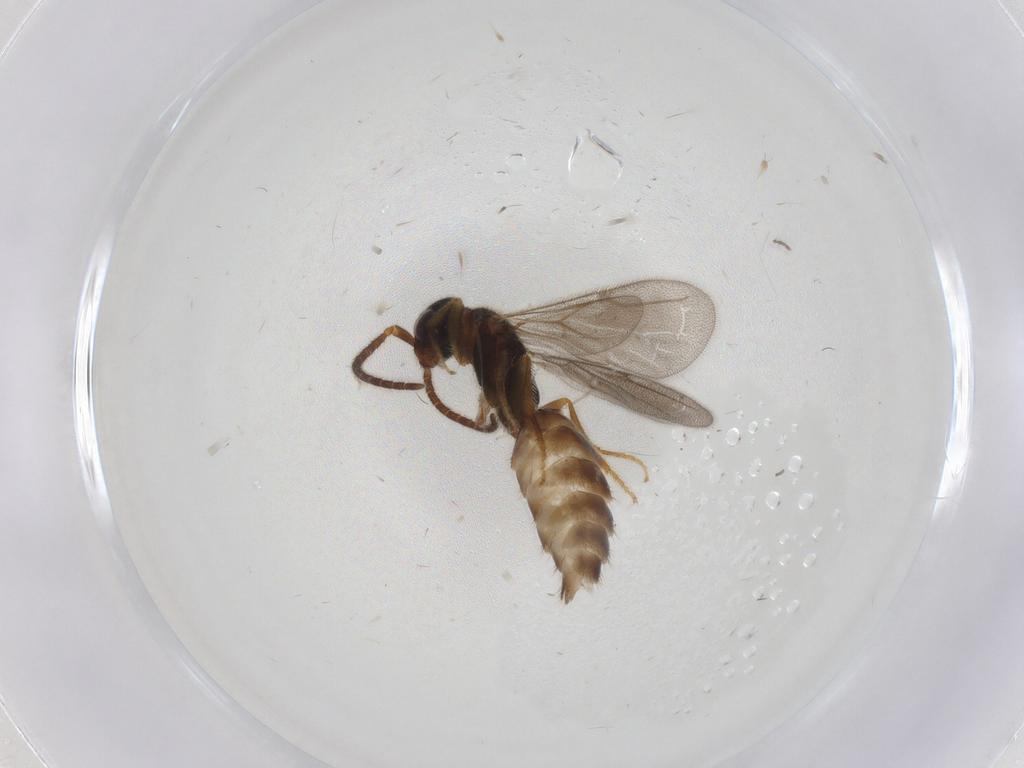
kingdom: Animalia
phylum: Arthropoda
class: Insecta
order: Hymenoptera
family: Bethylidae
